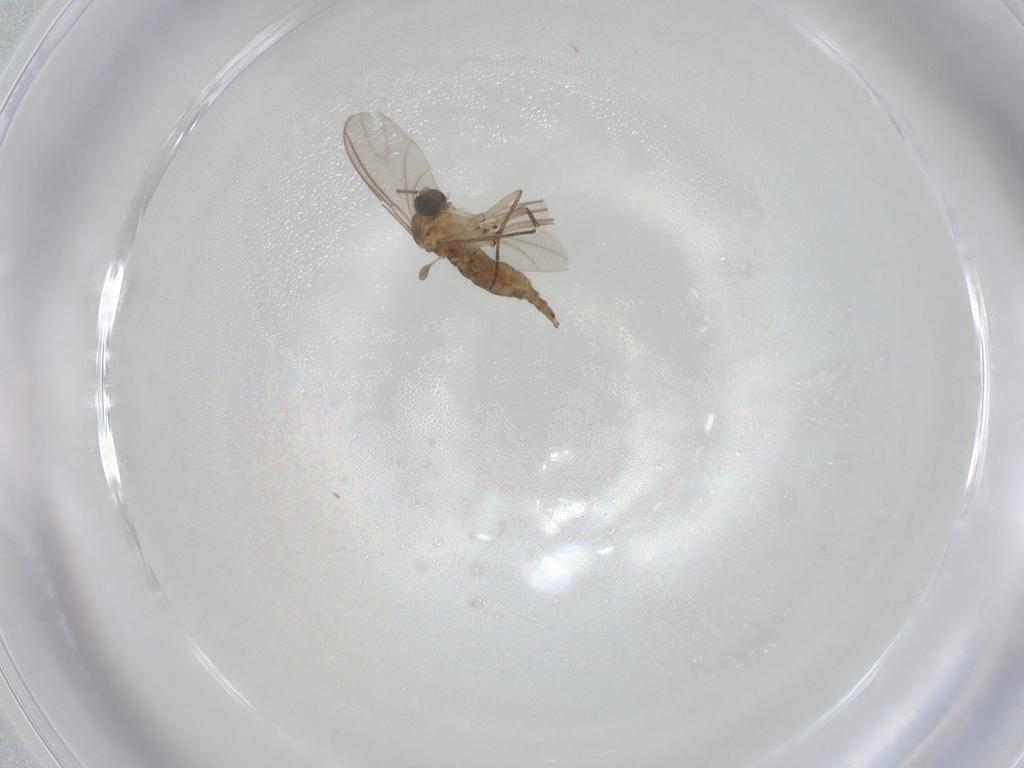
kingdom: Animalia
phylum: Arthropoda
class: Insecta
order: Diptera
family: Sciaridae
